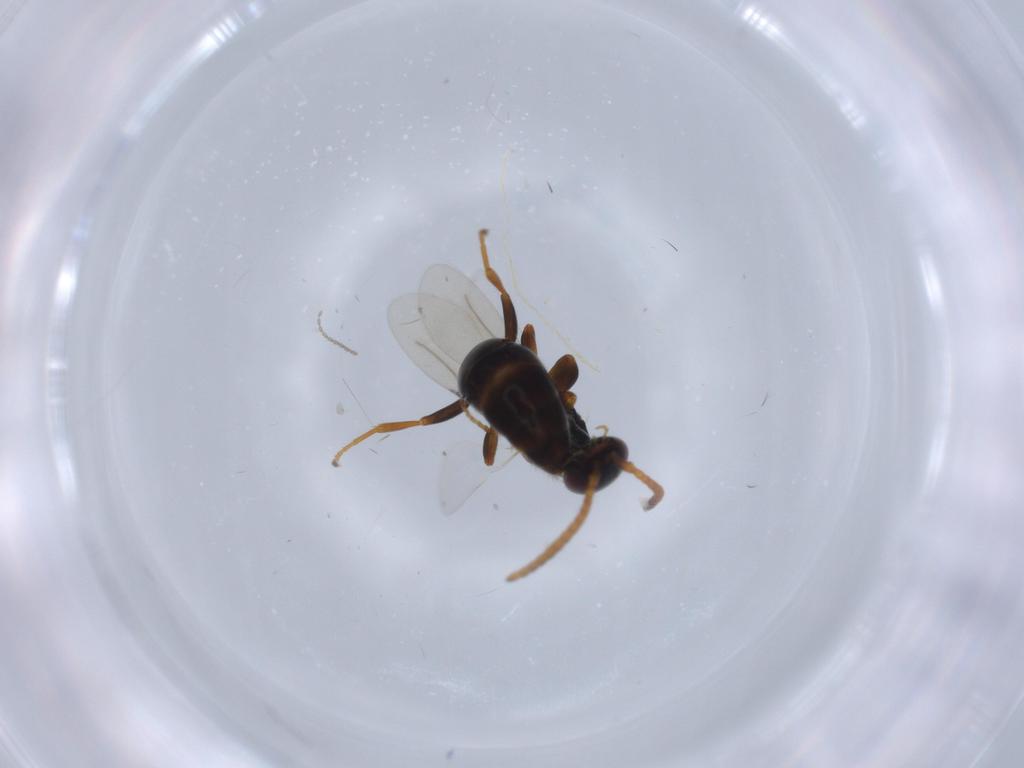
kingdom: Animalia
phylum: Arthropoda
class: Insecta
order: Hymenoptera
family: Bethylidae
